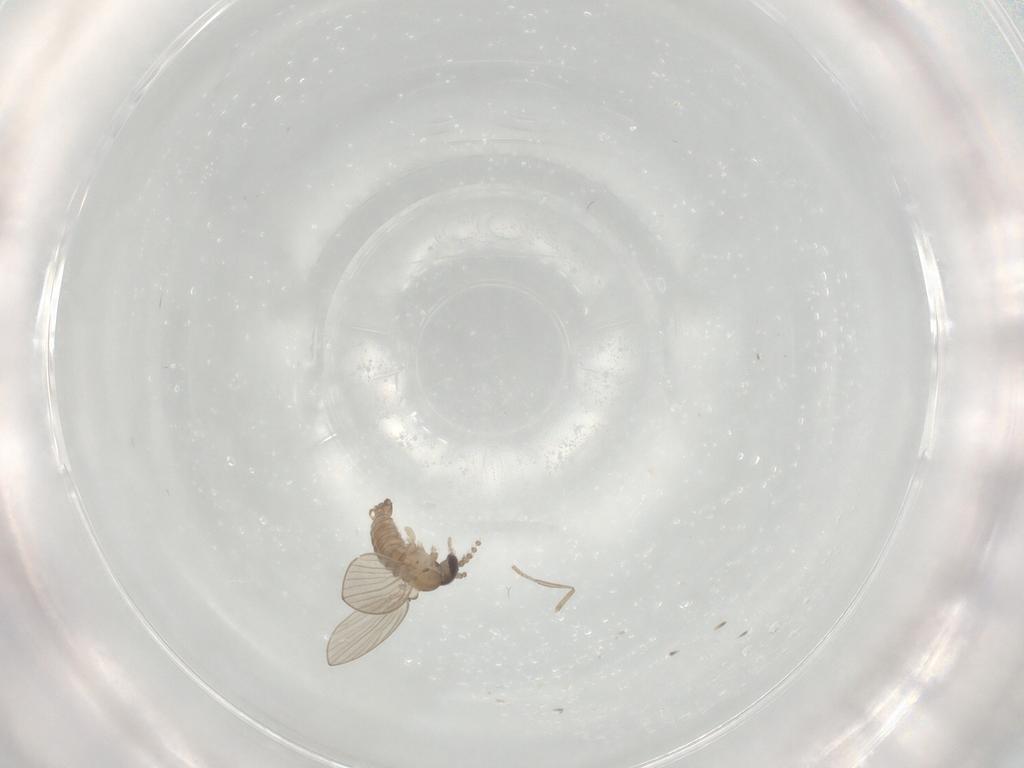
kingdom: Animalia
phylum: Arthropoda
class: Insecta
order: Diptera
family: Psychodidae
